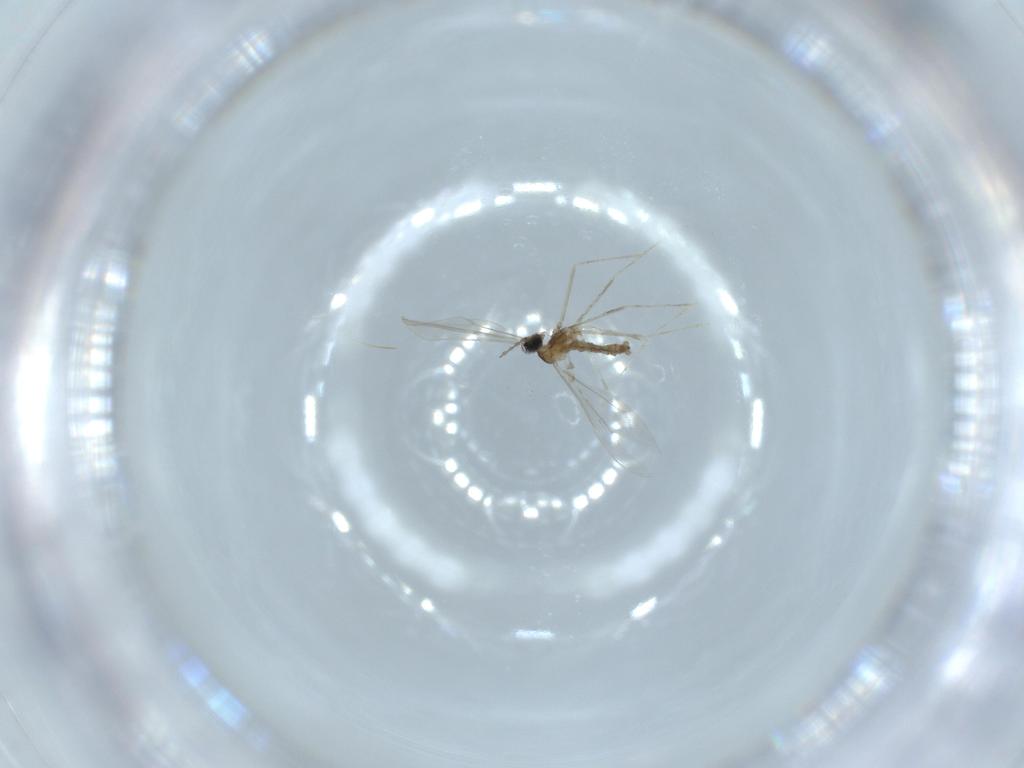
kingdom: Animalia
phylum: Arthropoda
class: Insecta
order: Diptera
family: Cecidomyiidae
